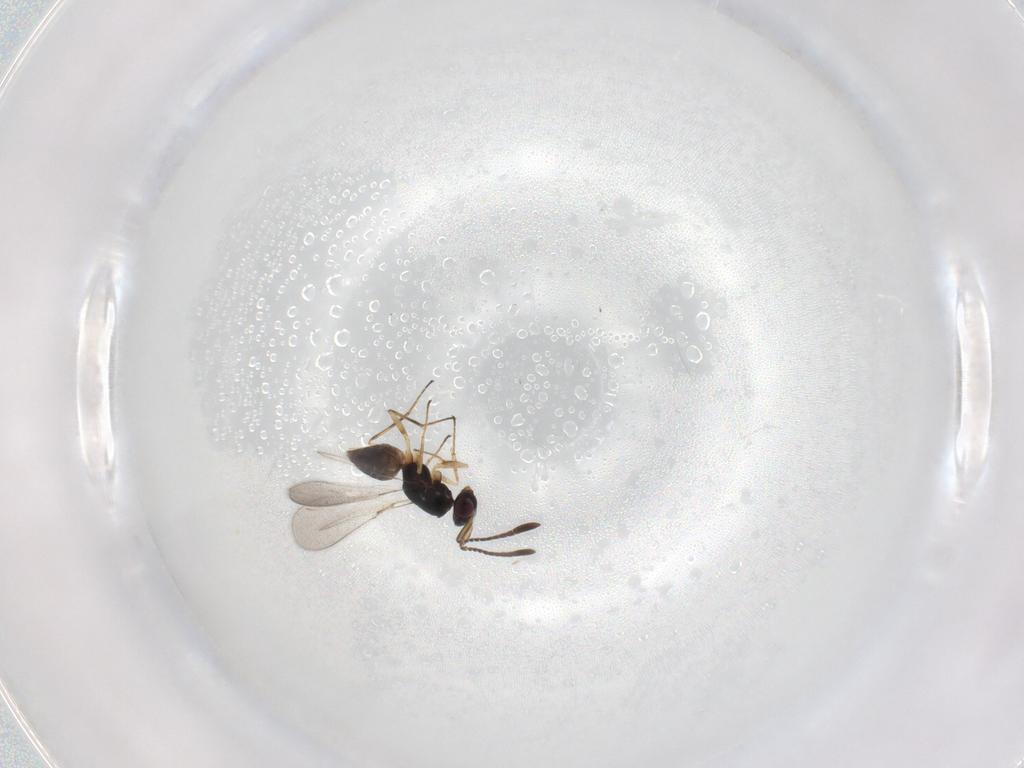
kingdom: Animalia
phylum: Arthropoda
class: Insecta
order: Hymenoptera
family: Mymaridae
